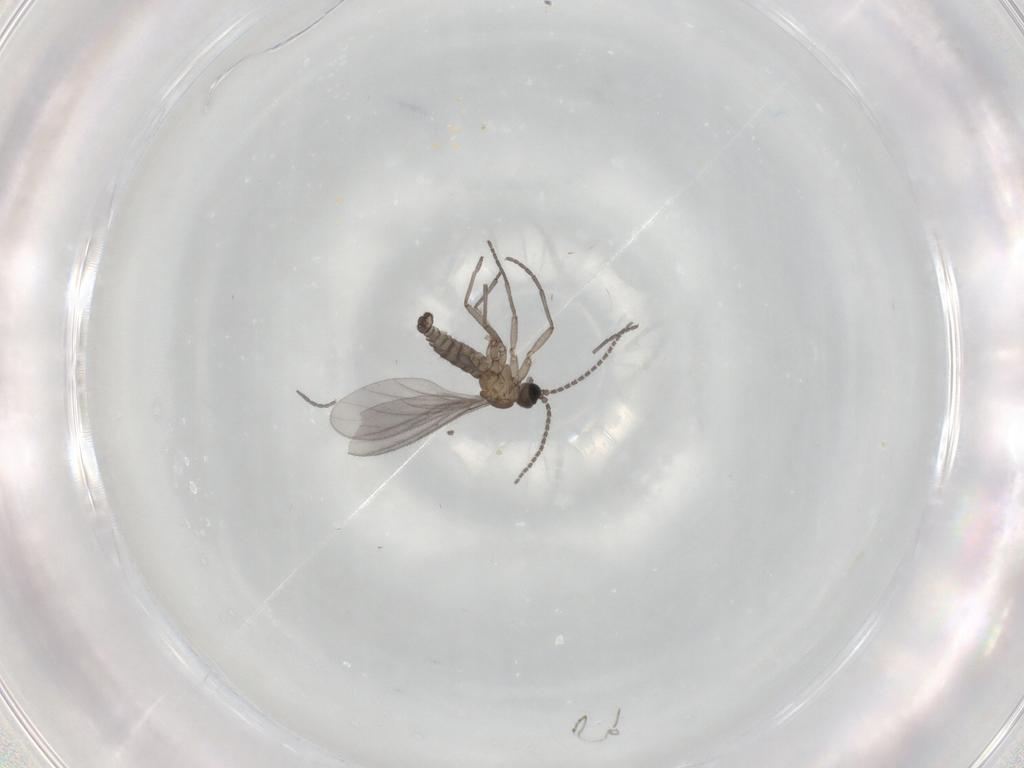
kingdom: Animalia
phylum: Arthropoda
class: Insecta
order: Diptera
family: Sciaridae
